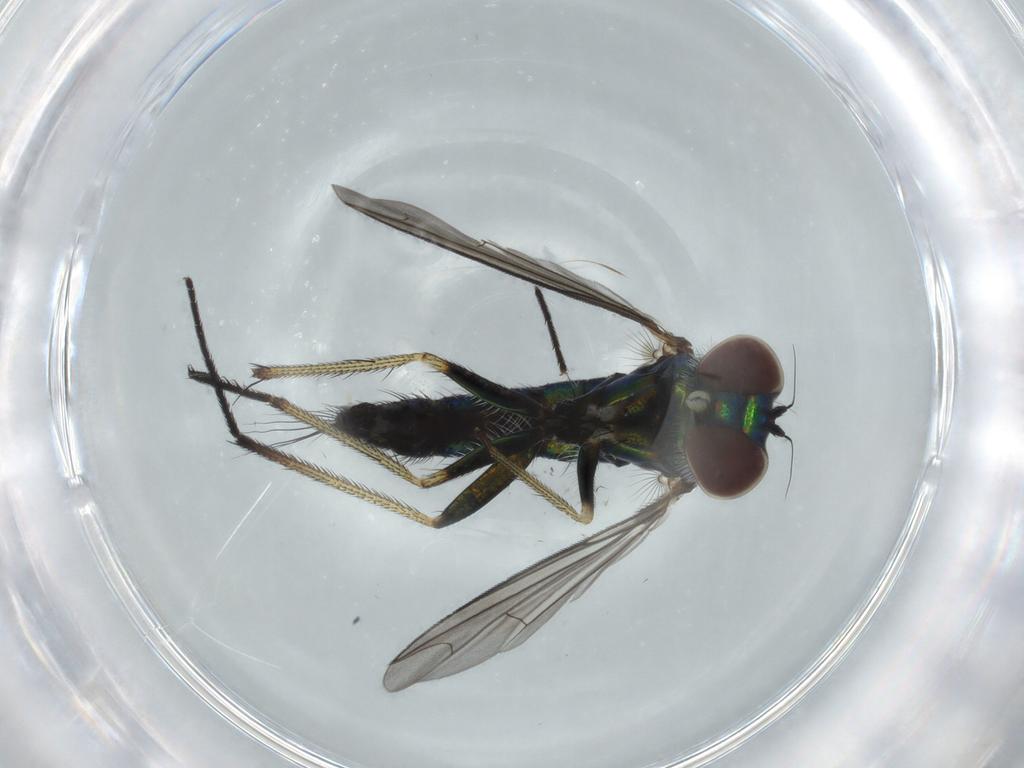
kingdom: Animalia
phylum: Arthropoda
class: Insecta
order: Diptera
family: Dolichopodidae
